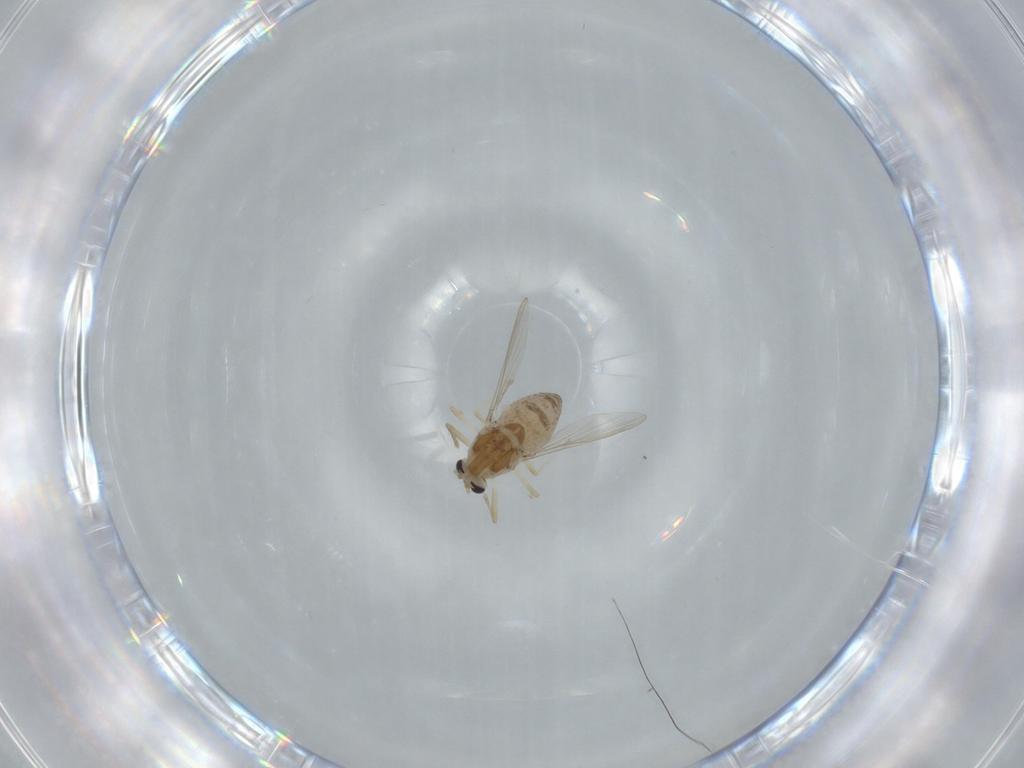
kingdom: Animalia
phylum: Arthropoda
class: Insecta
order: Diptera
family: Chironomidae
